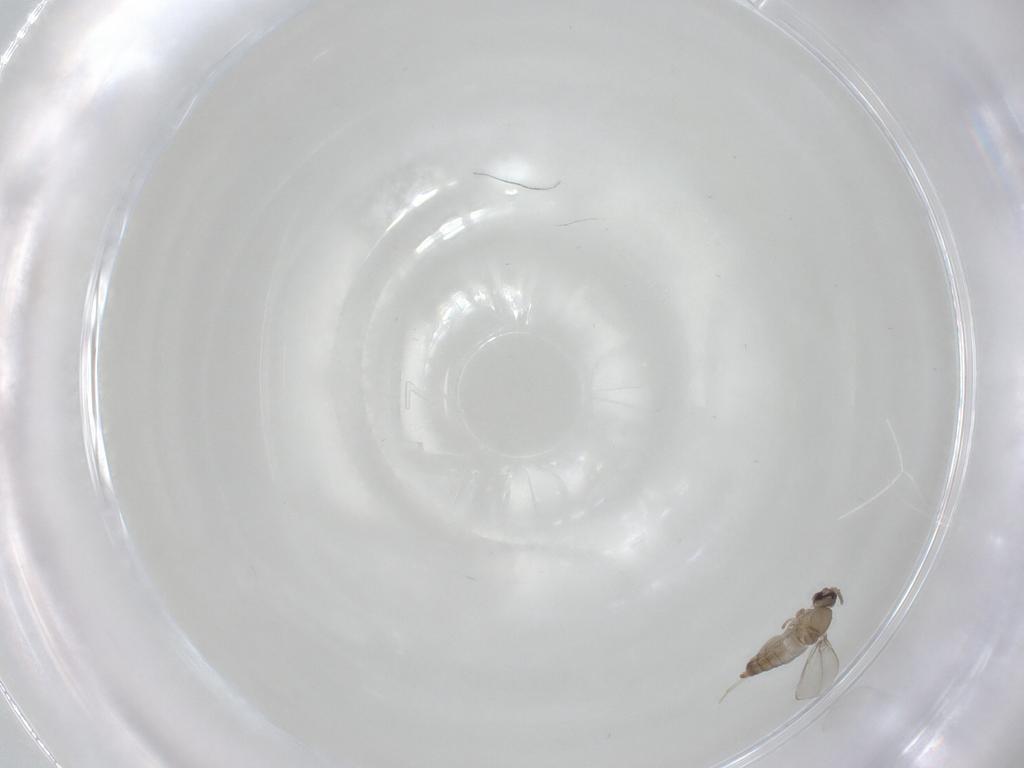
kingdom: Animalia
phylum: Arthropoda
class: Insecta
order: Diptera
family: Cecidomyiidae
